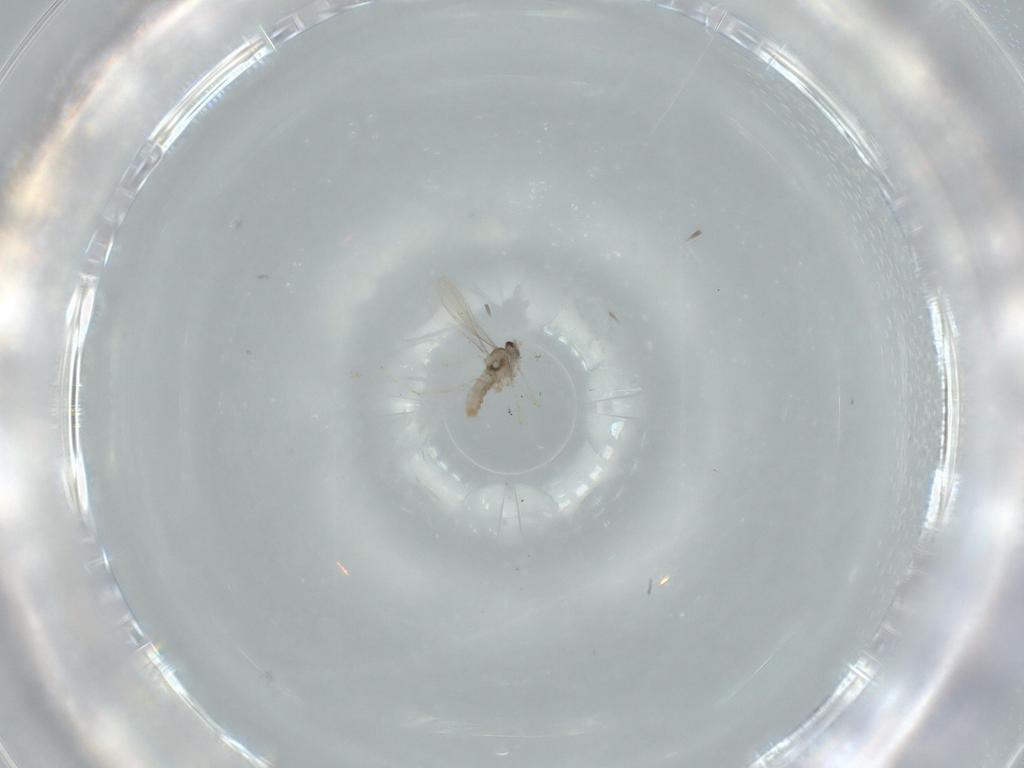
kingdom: Animalia
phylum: Arthropoda
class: Insecta
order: Diptera
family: Cecidomyiidae
